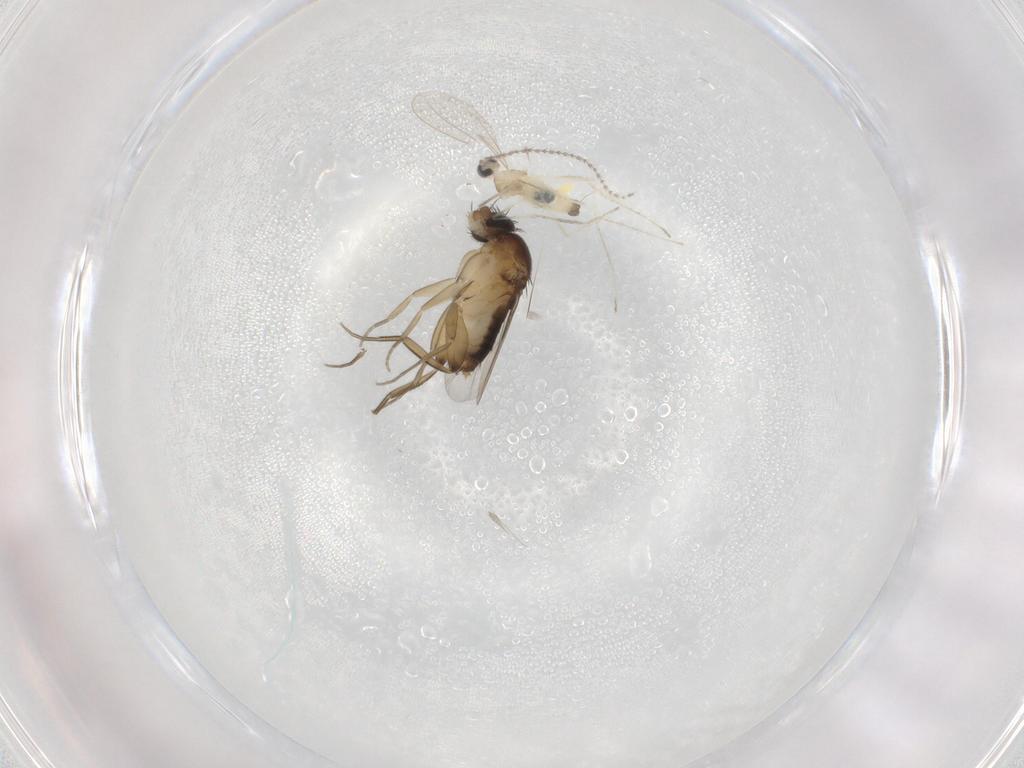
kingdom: Animalia
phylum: Arthropoda
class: Insecta
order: Diptera
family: Phoridae
